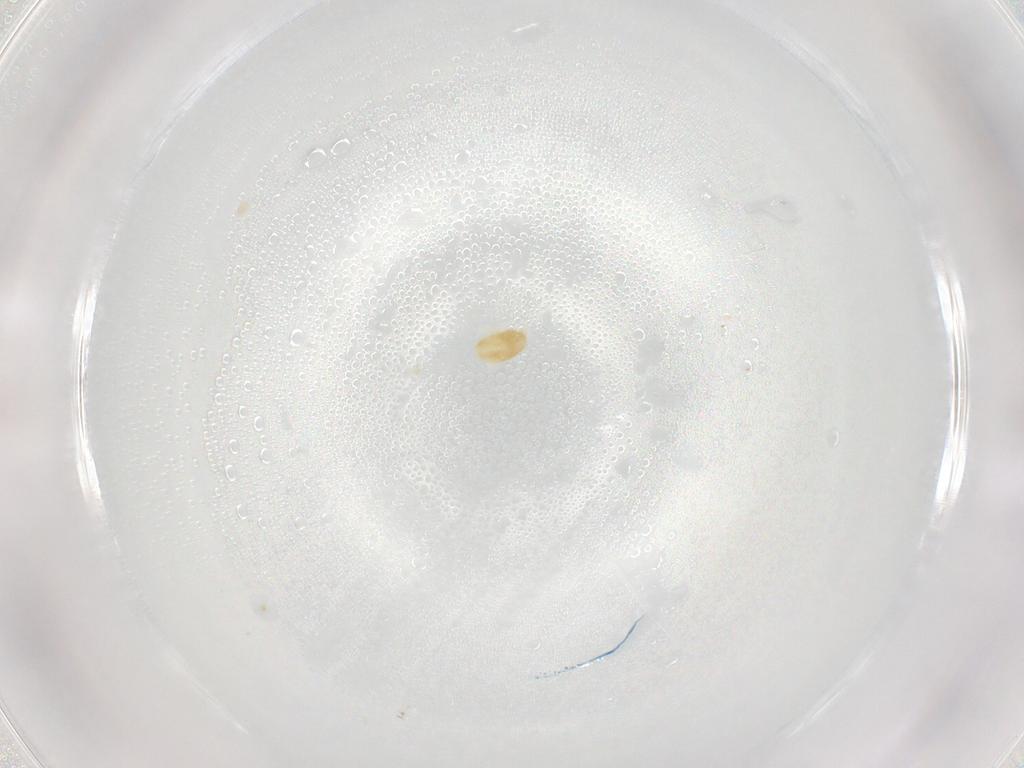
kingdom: Animalia
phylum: Arthropoda
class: Arachnida
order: Trombidiformes
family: Eupodidae
